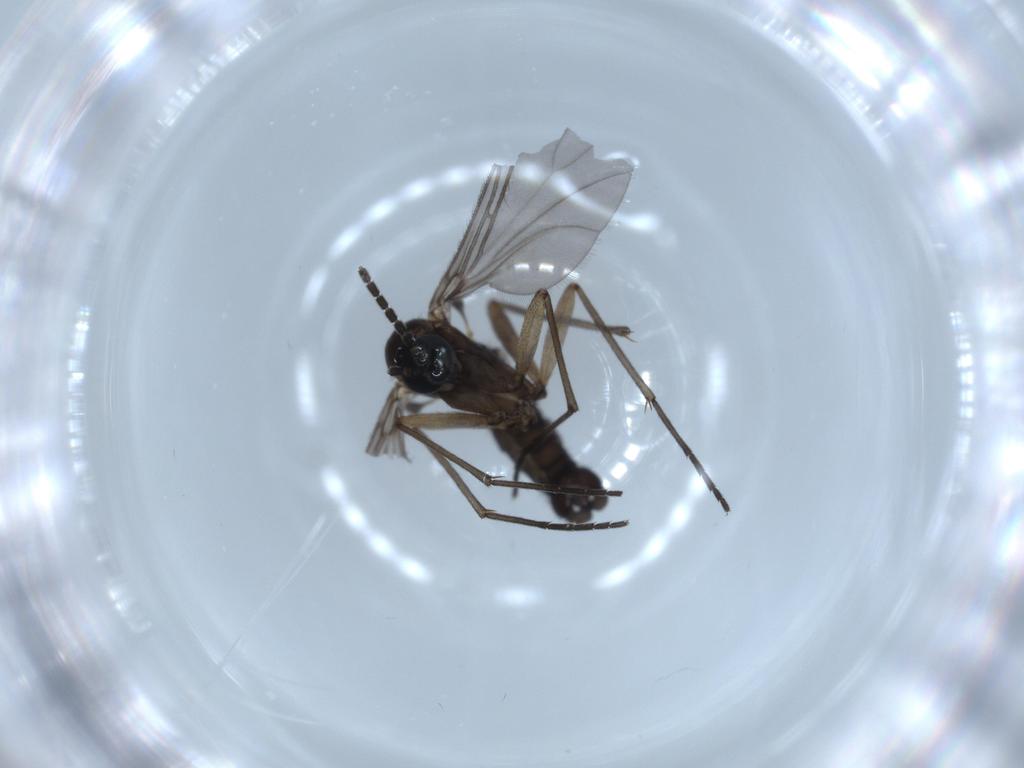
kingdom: Animalia
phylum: Arthropoda
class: Insecta
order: Diptera
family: Sciaridae
